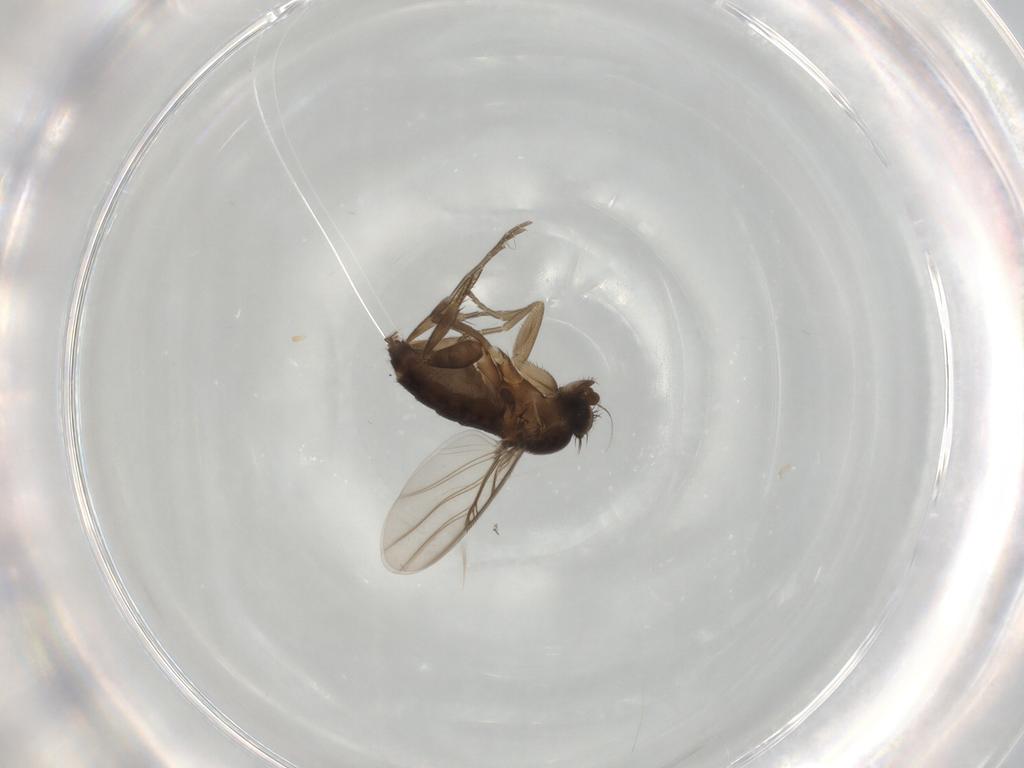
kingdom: Animalia
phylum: Arthropoda
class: Insecta
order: Diptera
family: Phoridae
